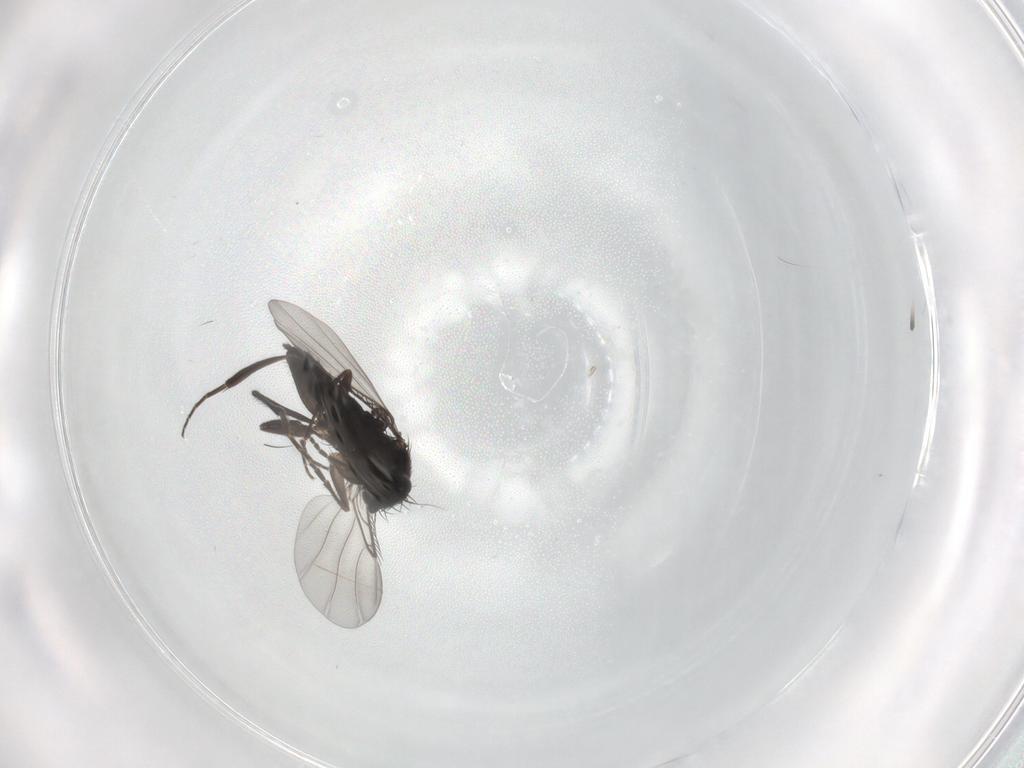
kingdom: Animalia
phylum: Arthropoda
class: Insecta
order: Diptera
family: Phoridae
